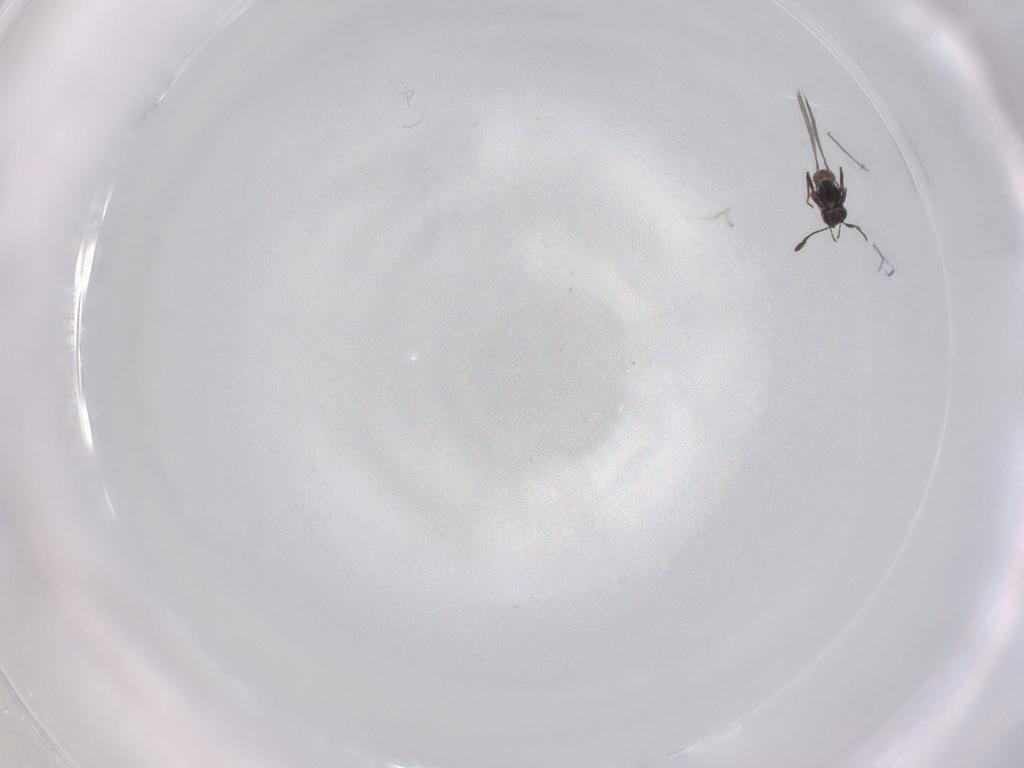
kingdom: Animalia
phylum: Arthropoda
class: Insecta
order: Hymenoptera
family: Mymaridae
